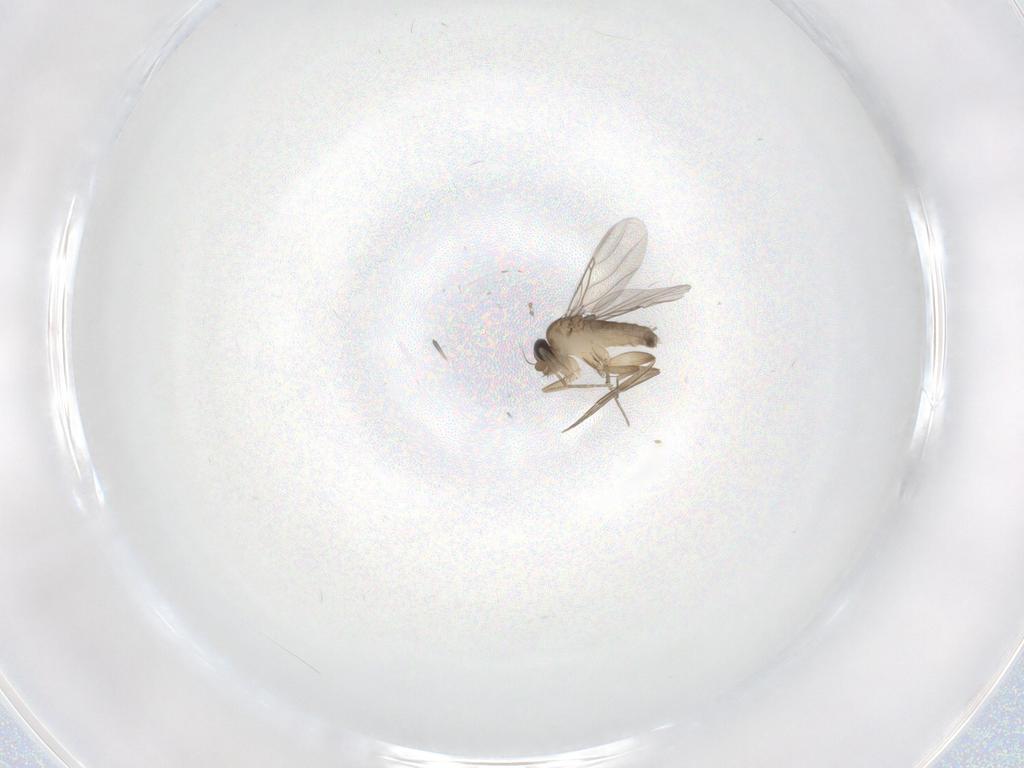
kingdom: Animalia
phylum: Arthropoda
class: Insecta
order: Diptera
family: Phoridae
